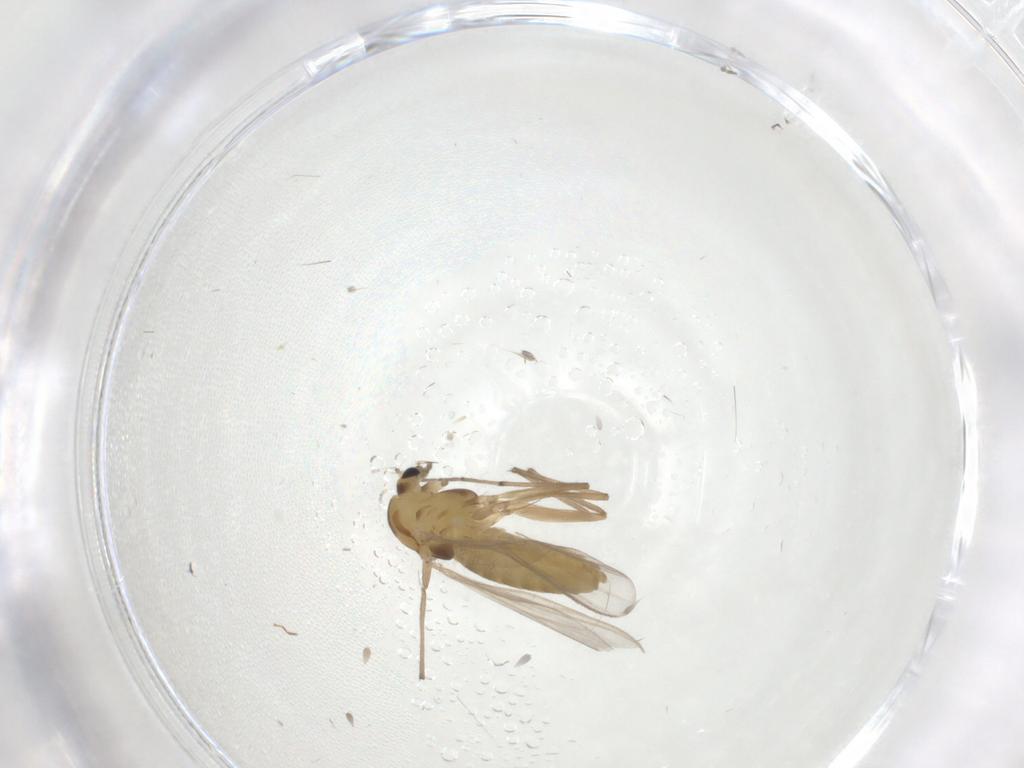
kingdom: Animalia
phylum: Arthropoda
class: Insecta
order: Diptera
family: Chironomidae
